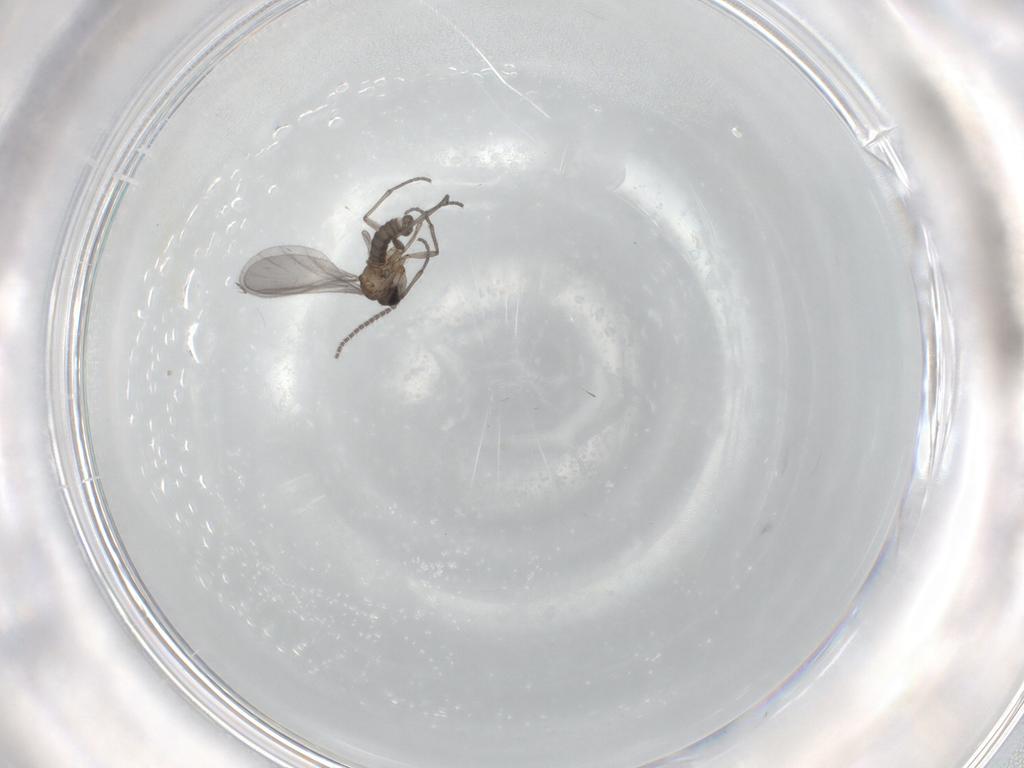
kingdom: Animalia
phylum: Arthropoda
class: Insecta
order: Diptera
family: Sciaridae
